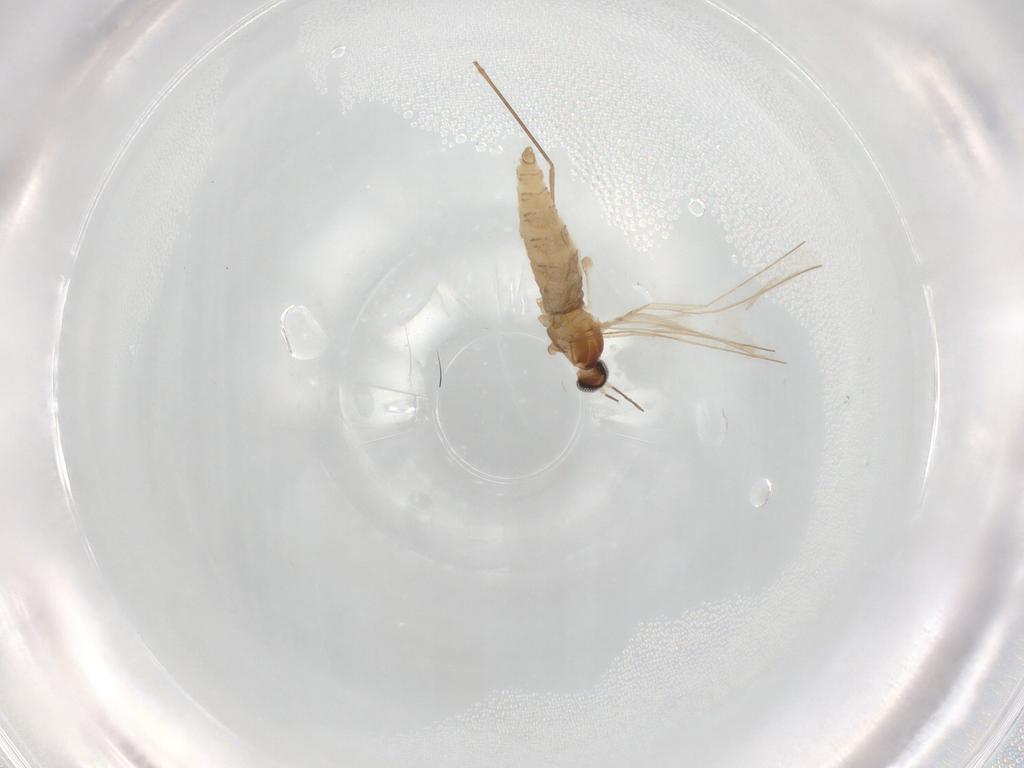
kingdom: Animalia
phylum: Arthropoda
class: Insecta
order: Diptera
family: Cecidomyiidae
